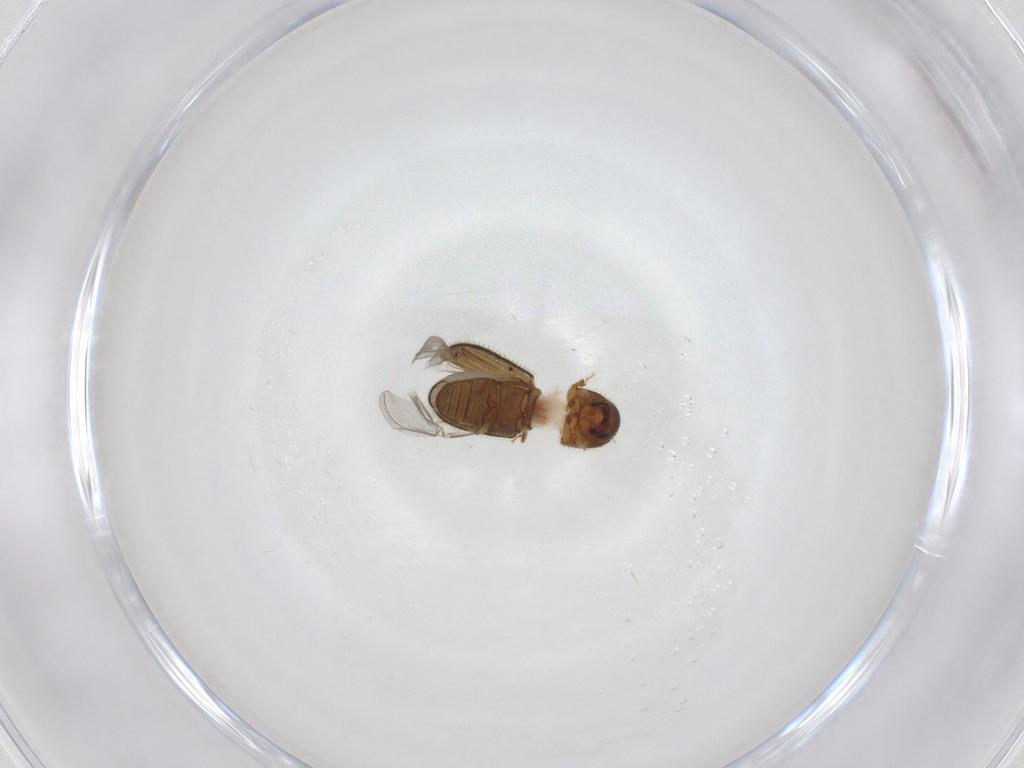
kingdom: Animalia
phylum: Arthropoda
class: Insecta
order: Coleoptera
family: Curculionidae
